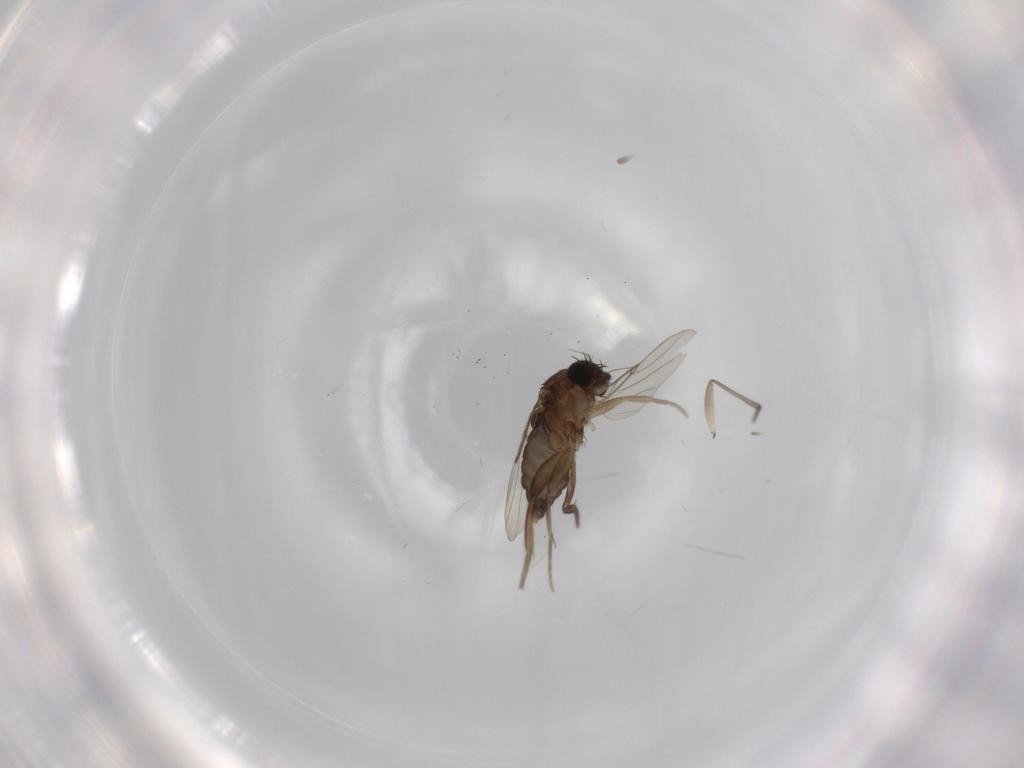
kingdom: Animalia
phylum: Arthropoda
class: Insecta
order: Diptera
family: Phoridae
